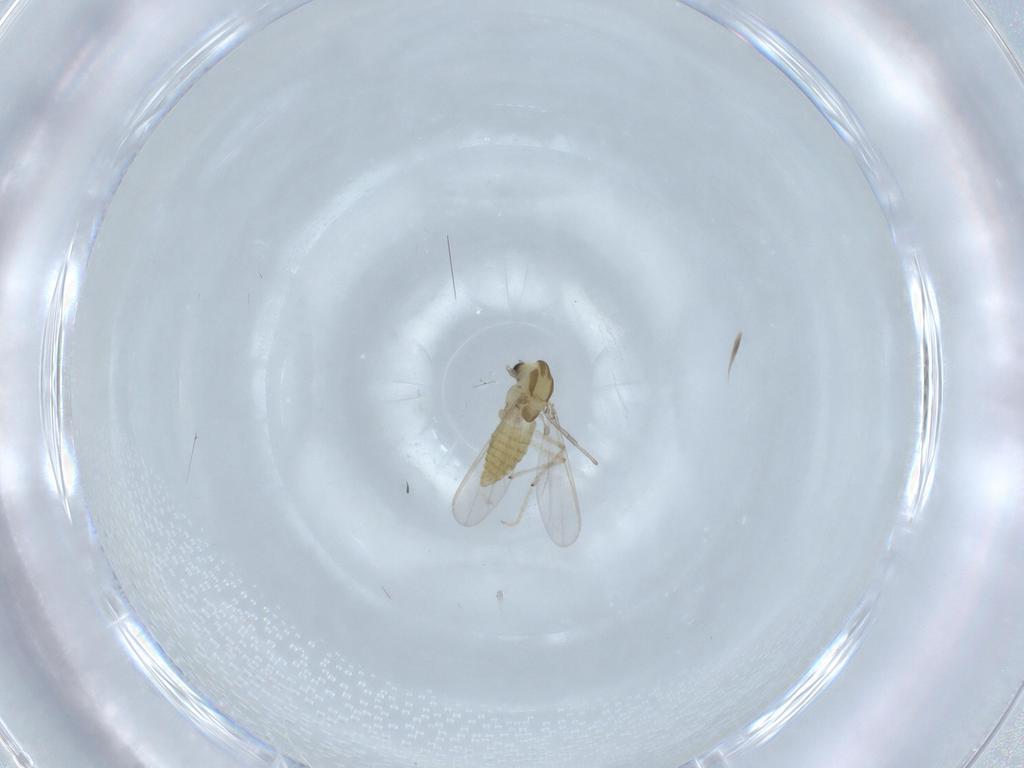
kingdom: Animalia
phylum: Arthropoda
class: Insecta
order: Diptera
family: Chironomidae
